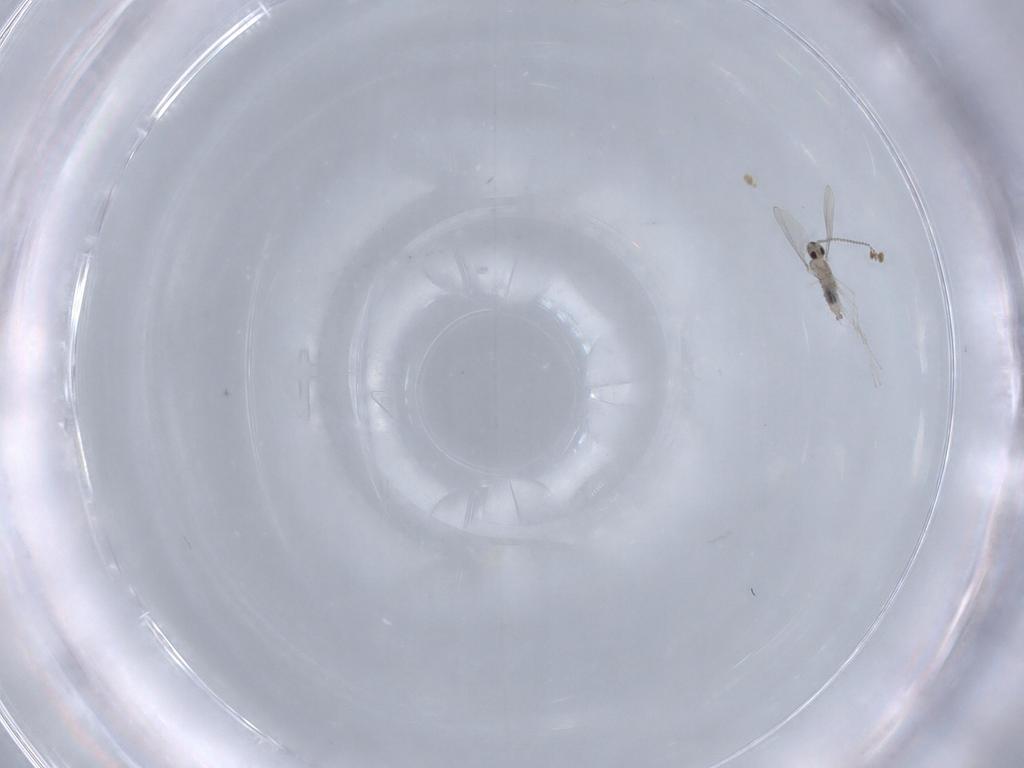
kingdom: Animalia
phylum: Arthropoda
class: Insecta
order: Diptera
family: Cecidomyiidae
